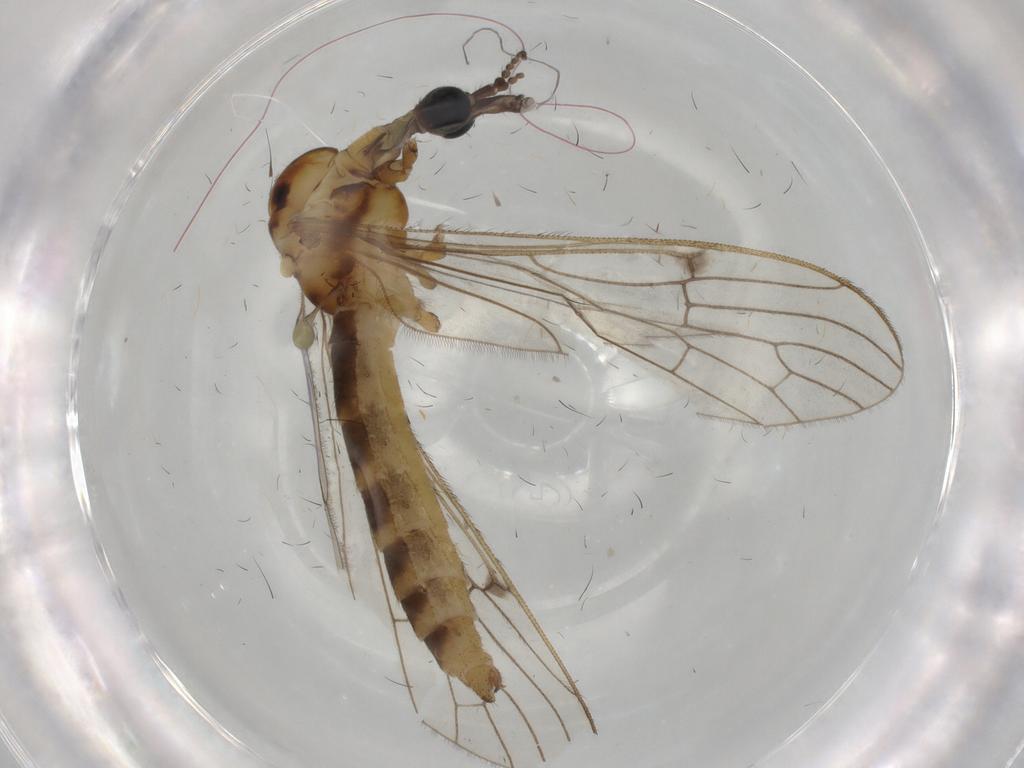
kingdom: Animalia
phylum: Arthropoda
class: Insecta
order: Diptera
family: Limoniidae
